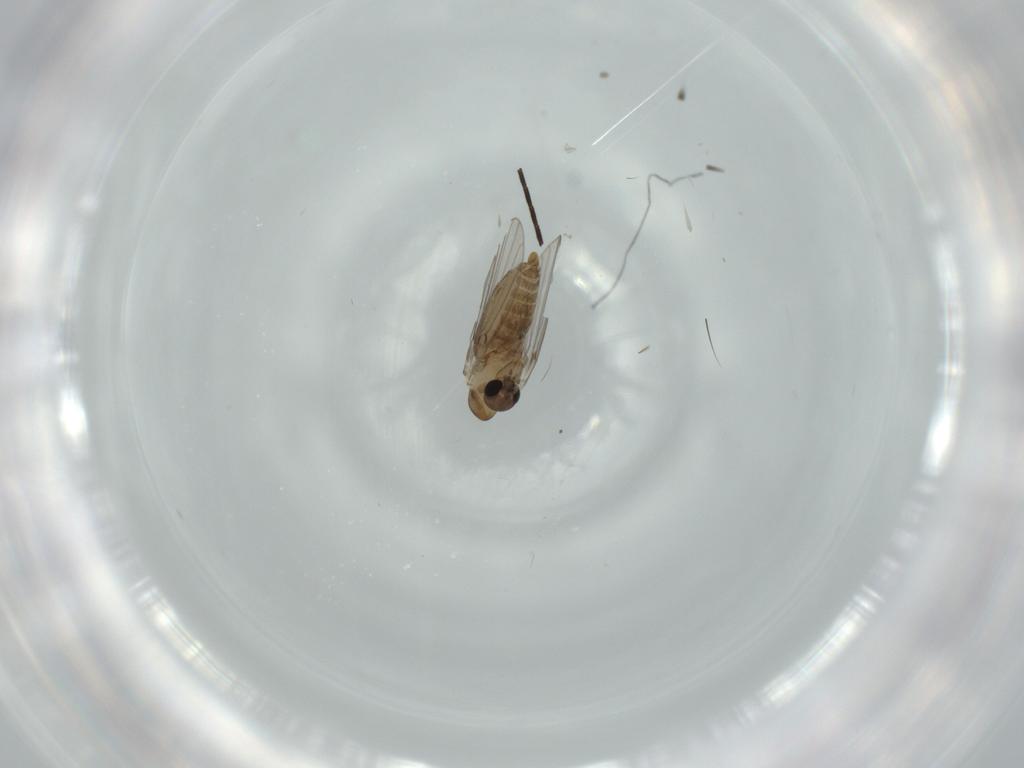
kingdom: Animalia
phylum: Arthropoda
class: Insecta
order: Diptera
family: Phoridae
